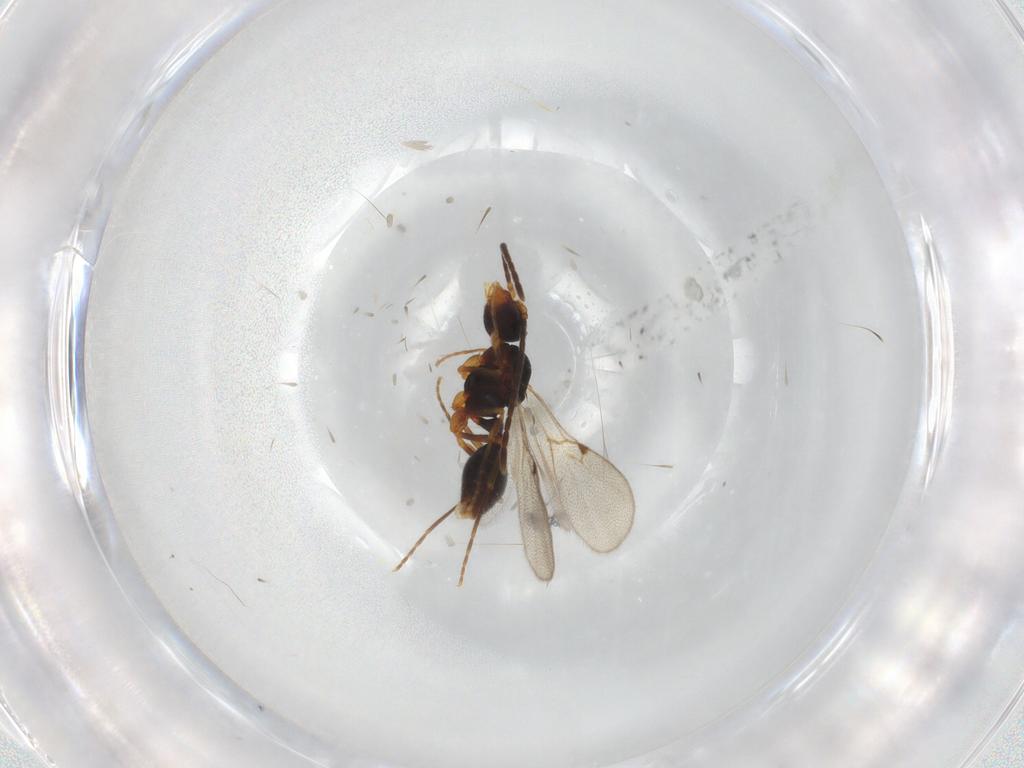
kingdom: Animalia
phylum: Arthropoda
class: Insecta
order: Hymenoptera
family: Formicidae
